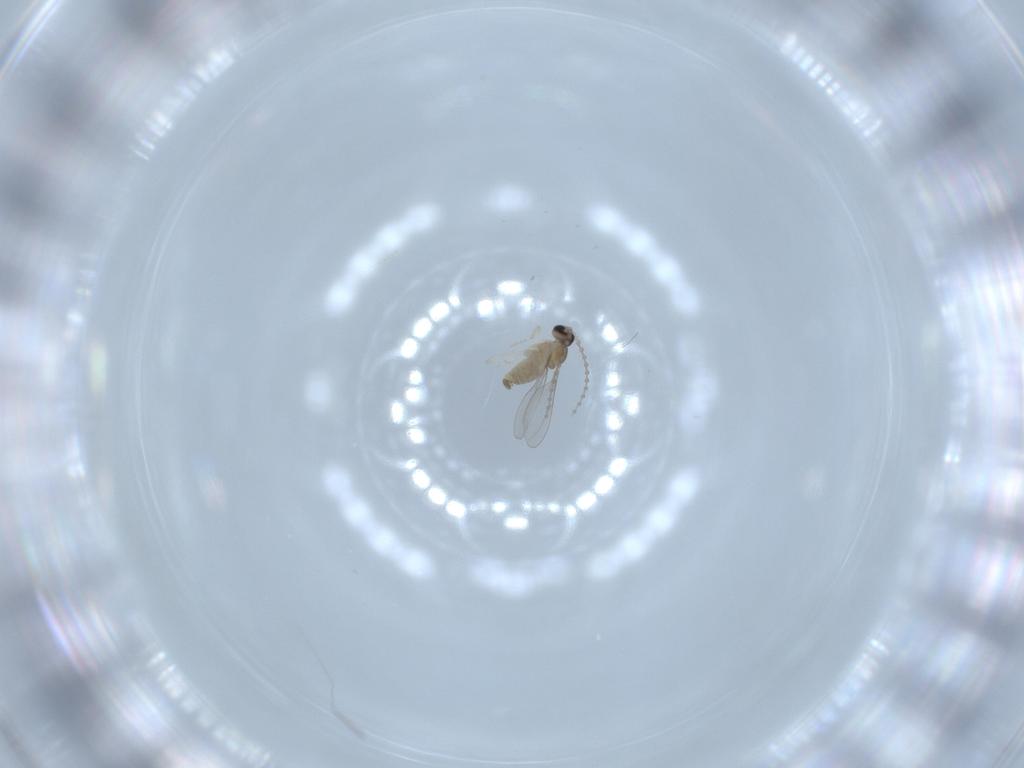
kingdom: Animalia
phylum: Arthropoda
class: Insecta
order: Diptera
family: Cecidomyiidae
